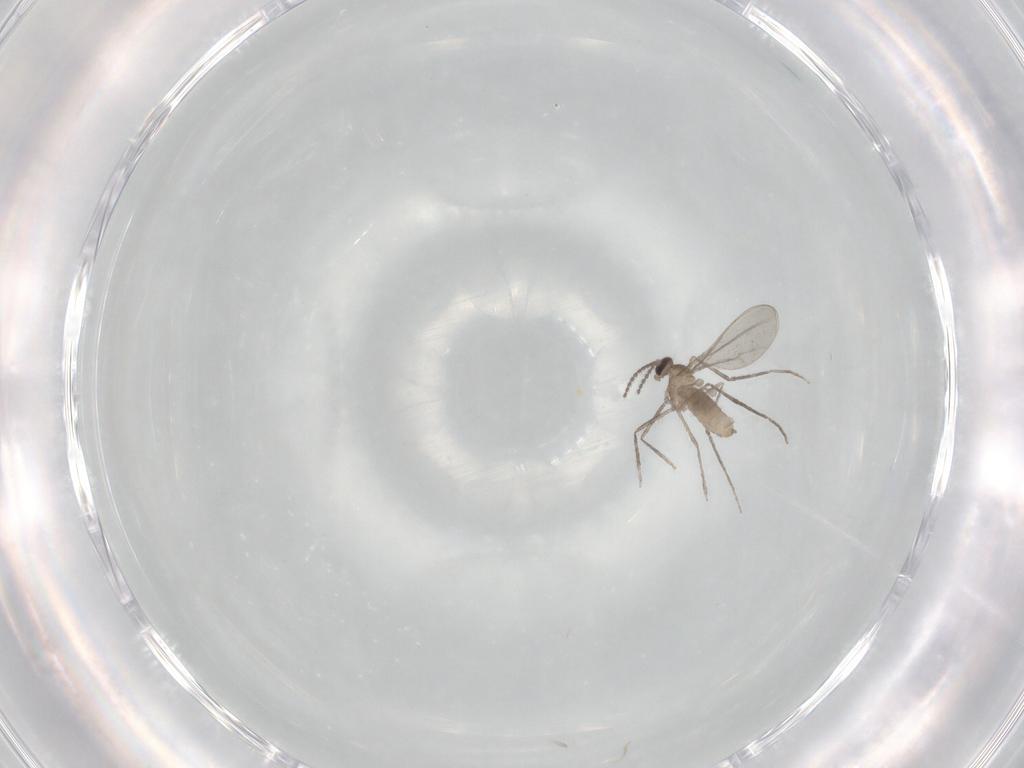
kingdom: Animalia
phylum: Arthropoda
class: Insecta
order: Diptera
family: Cecidomyiidae
